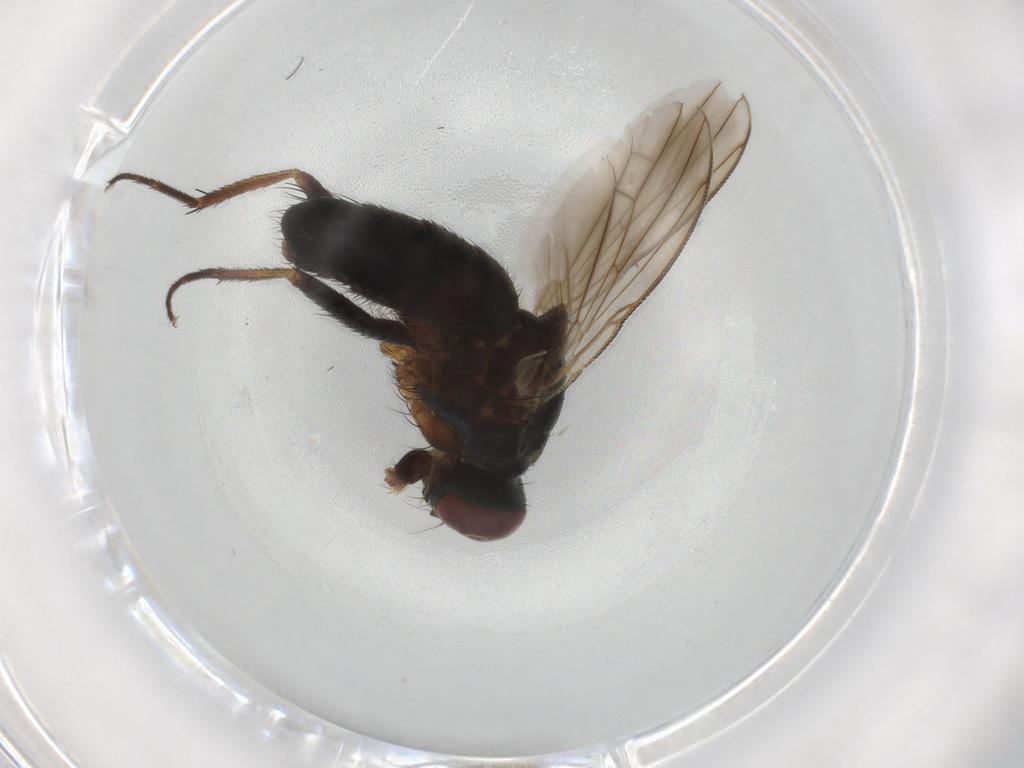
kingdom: Animalia
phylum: Arthropoda
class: Insecta
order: Diptera
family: Muscidae
